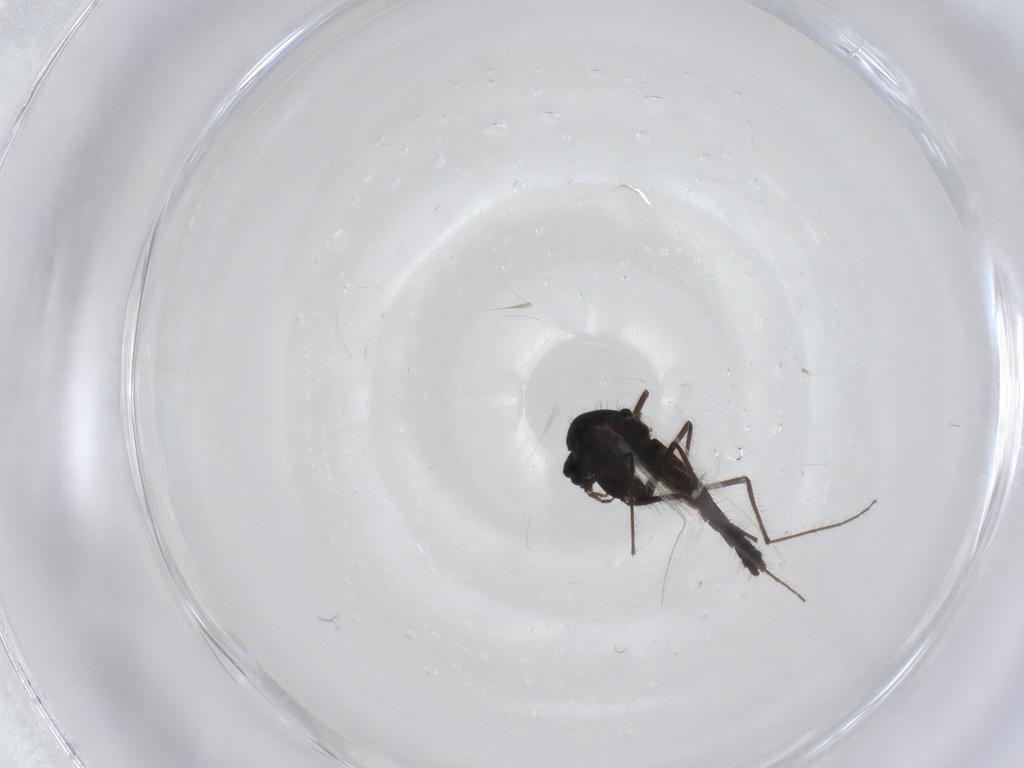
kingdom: Animalia
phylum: Arthropoda
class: Insecta
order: Diptera
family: Chironomidae
